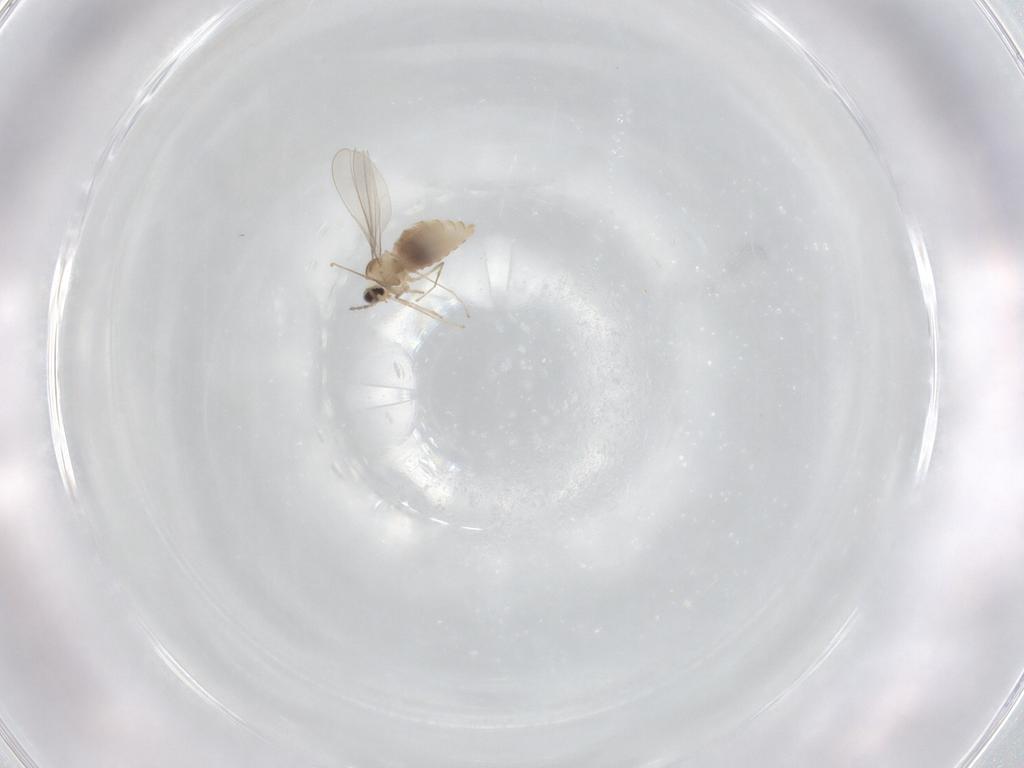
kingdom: Animalia
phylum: Arthropoda
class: Insecta
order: Diptera
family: Cecidomyiidae
